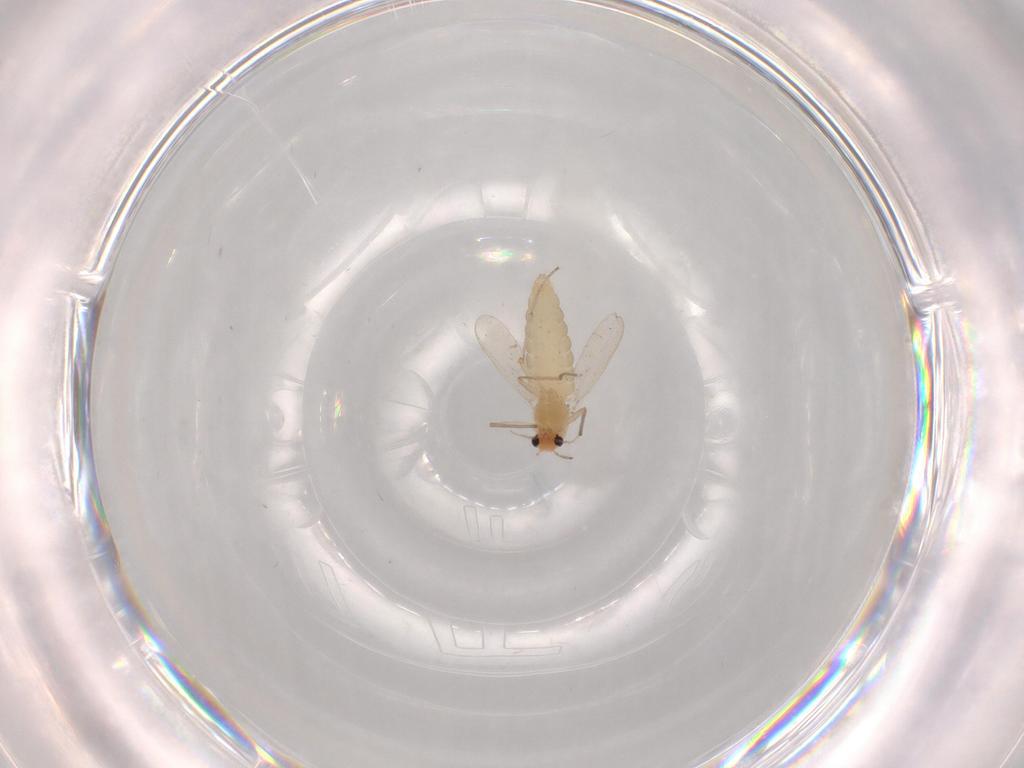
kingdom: Animalia
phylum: Arthropoda
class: Insecta
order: Diptera
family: Chironomidae
